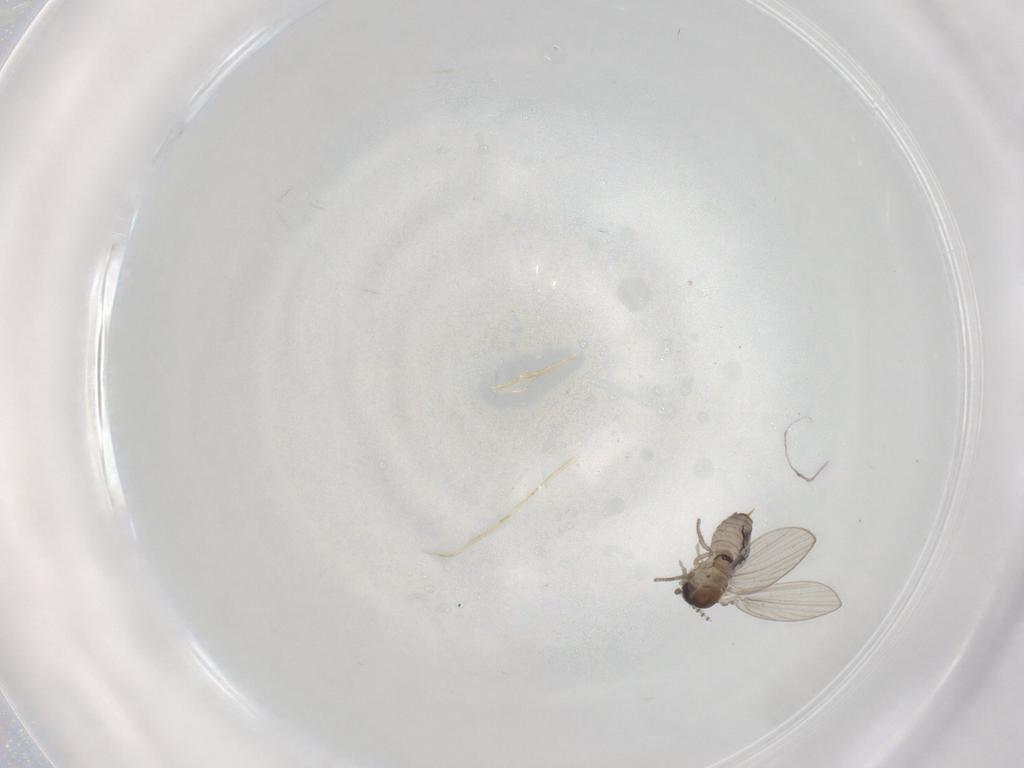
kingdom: Animalia
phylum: Arthropoda
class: Insecta
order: Diptera
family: Psychodidae
